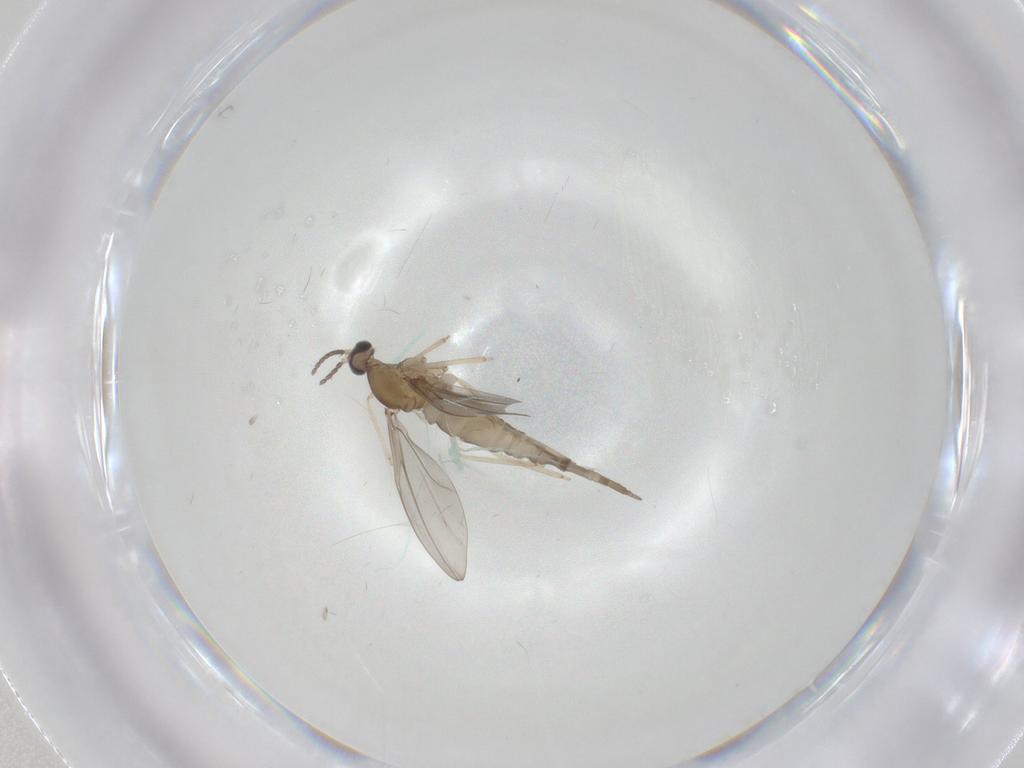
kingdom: Animalia
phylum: Arthropoda
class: Insecta
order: Diptera
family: Cecidomyiidae
